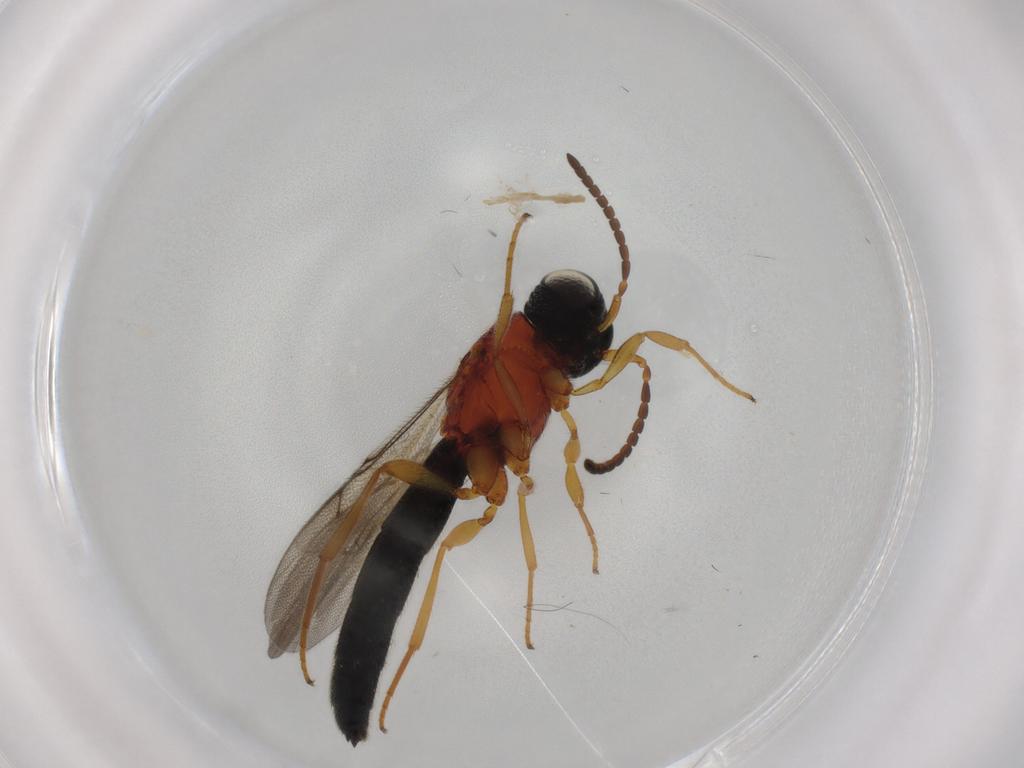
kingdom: Animalia
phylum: Arthropoda
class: Insecta
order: Hymenoptera
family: Scelionidae
